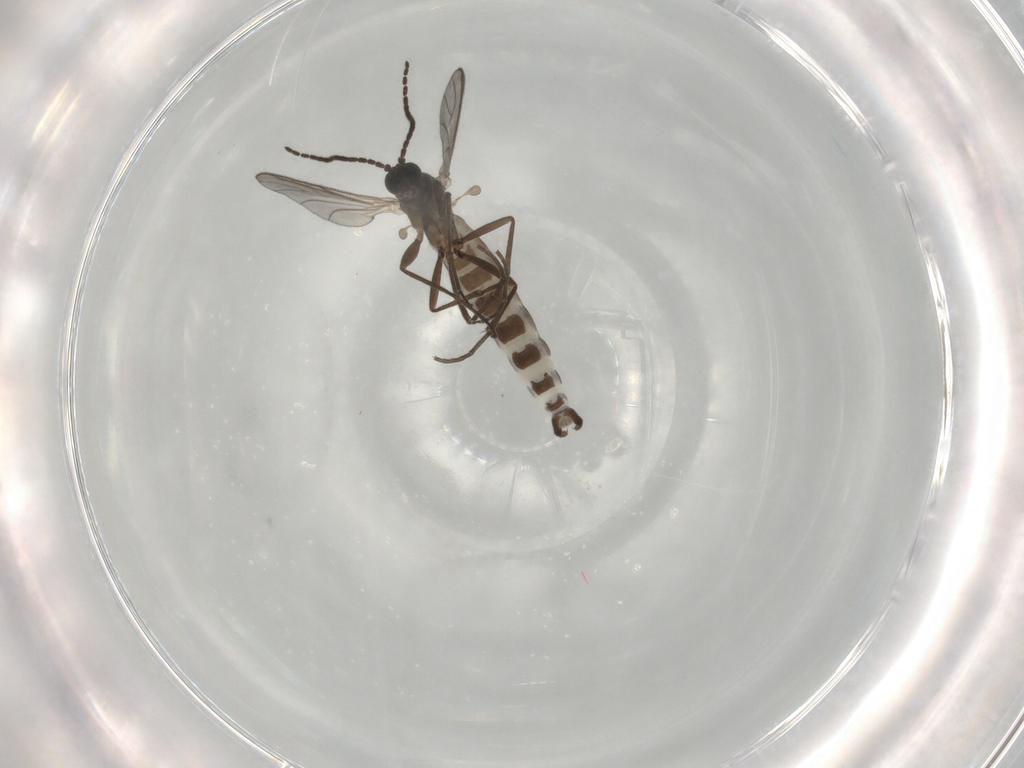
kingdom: Animalia
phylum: Arthropoda
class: Insecta
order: Diptera
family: Sciaridae
